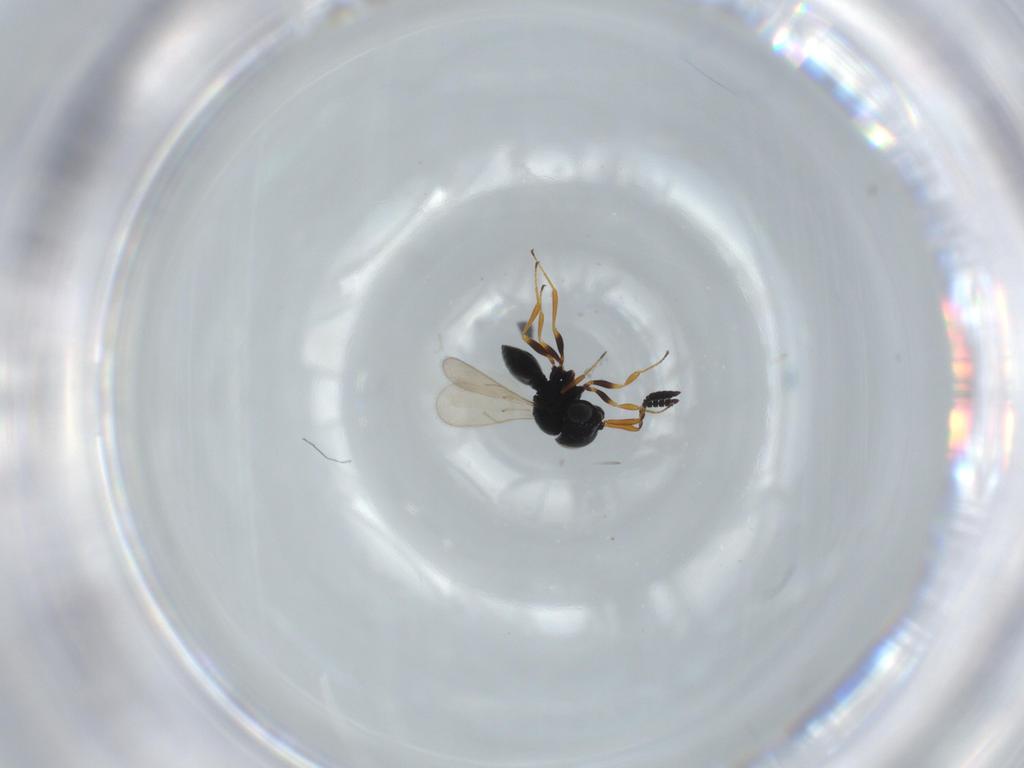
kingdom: Animalia
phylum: Arthropoda
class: Insecta
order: Hymenoptera
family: Scelionidae
